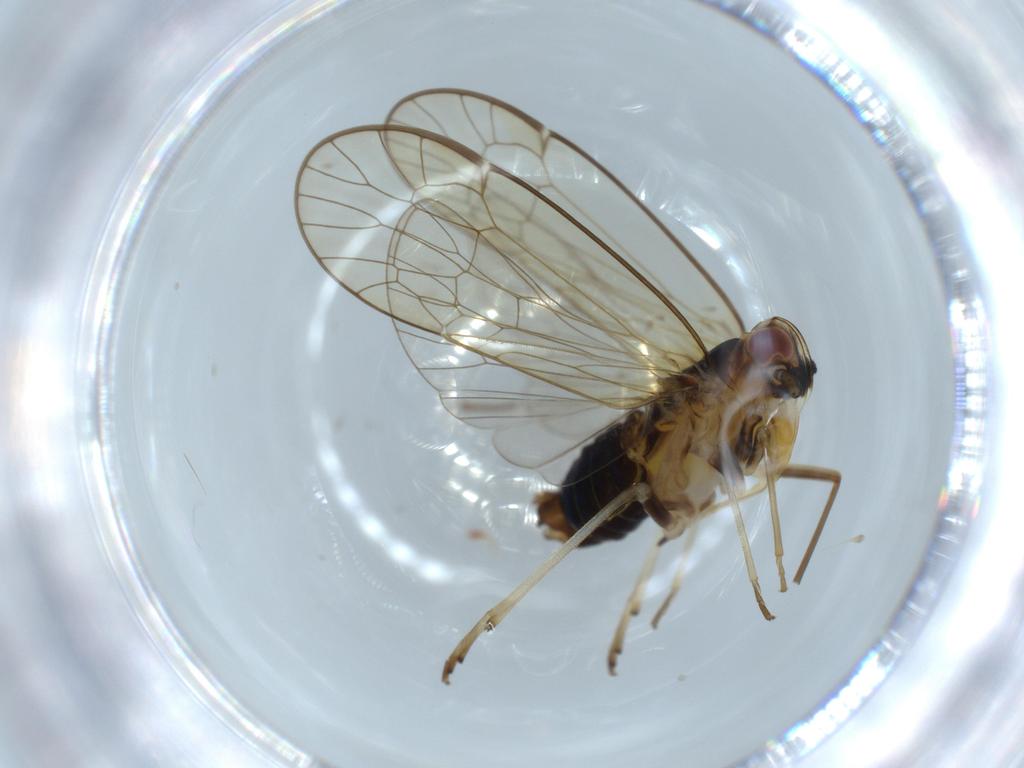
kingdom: Animalia
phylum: Arthropoda
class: Insecta
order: Hemiptera
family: Kinnaridae
